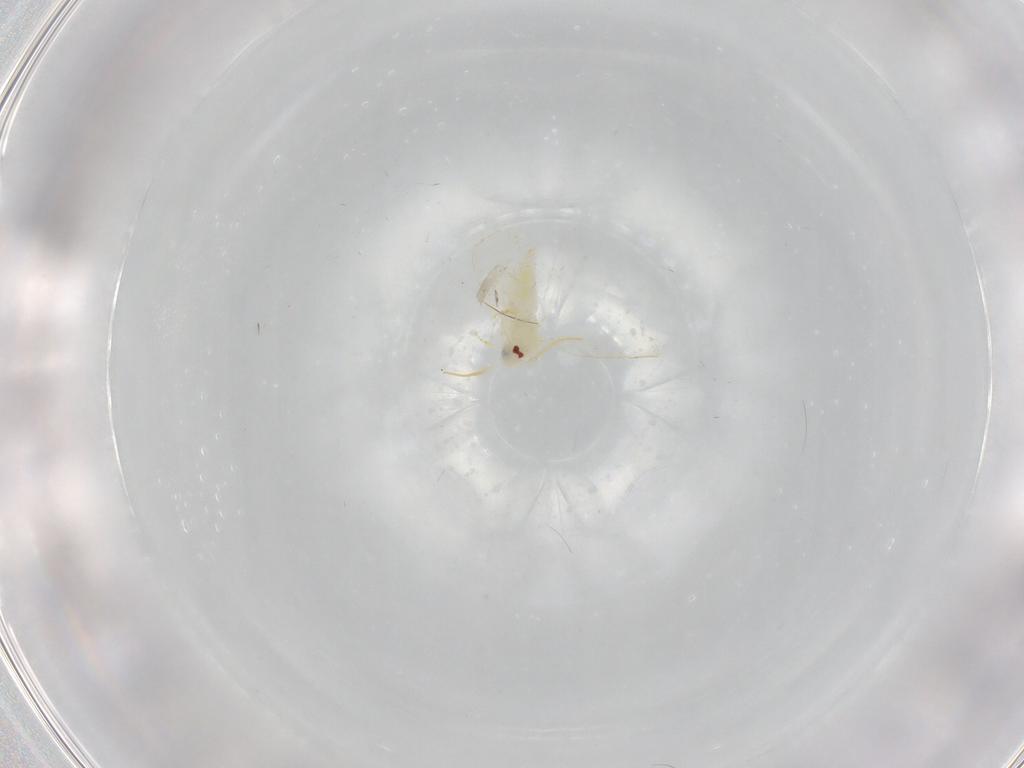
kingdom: Animalia
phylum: Arthropoda
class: Insecta
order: Hemiptera
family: Aleyrodidae
